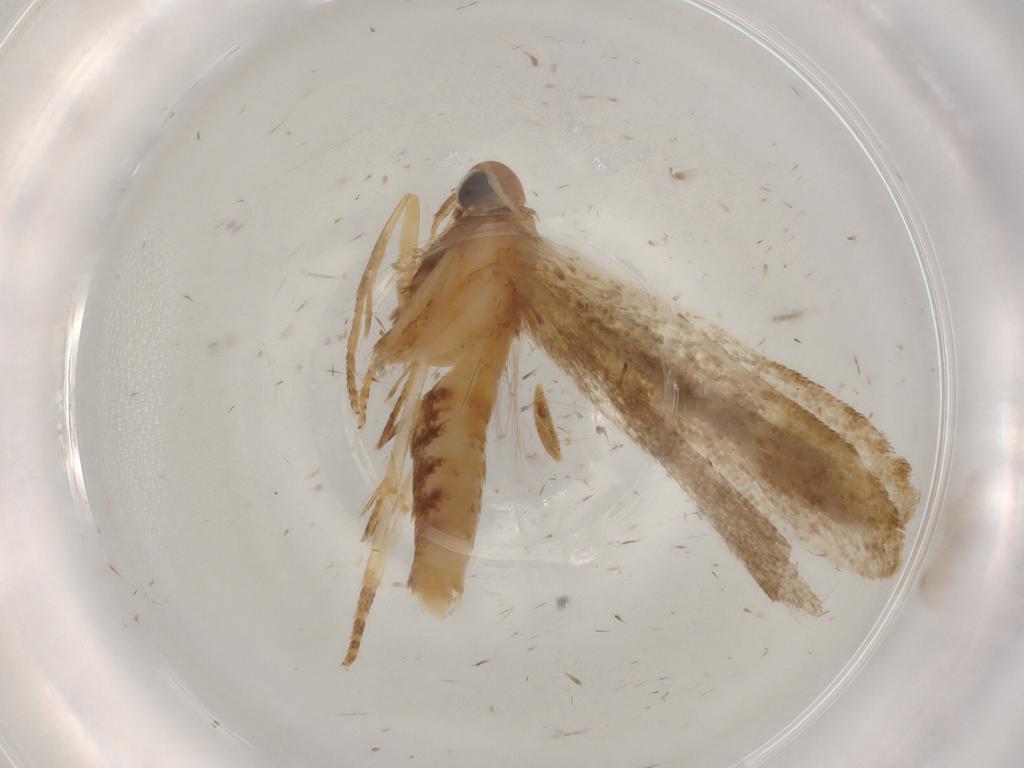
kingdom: Animalia
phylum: Arthropoda
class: Insecta
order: Lepidoptera
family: Gelechiidae
